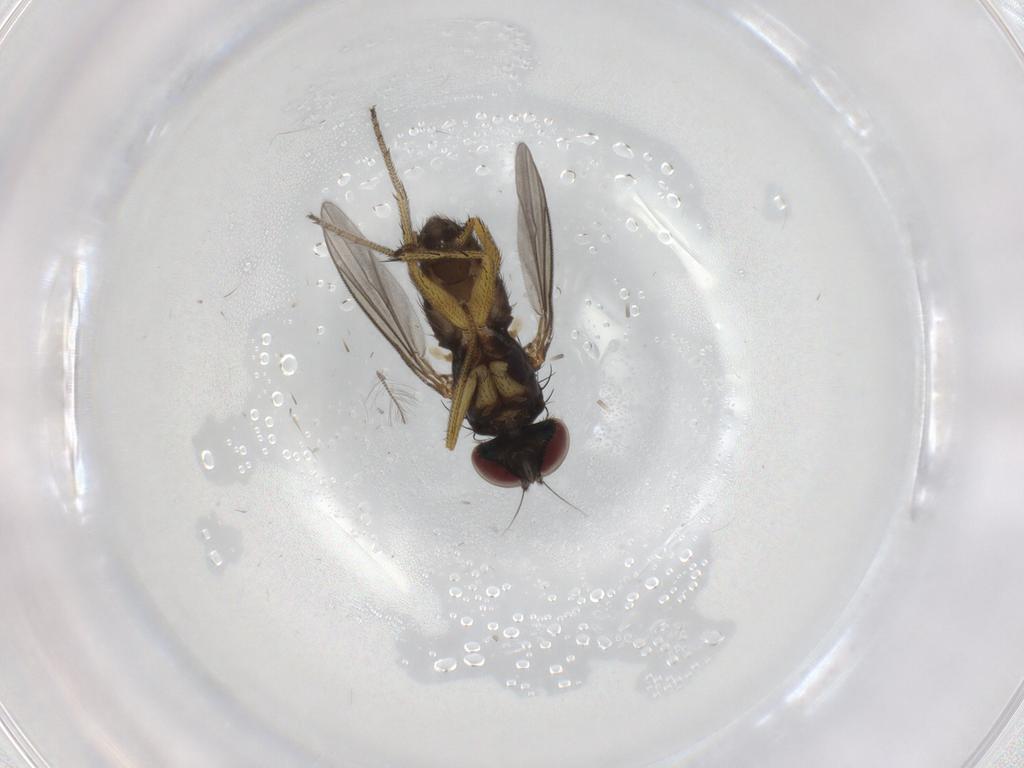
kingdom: Animalia
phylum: Arthropoda
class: Insecta
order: Diptera
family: Dolichopodidae
